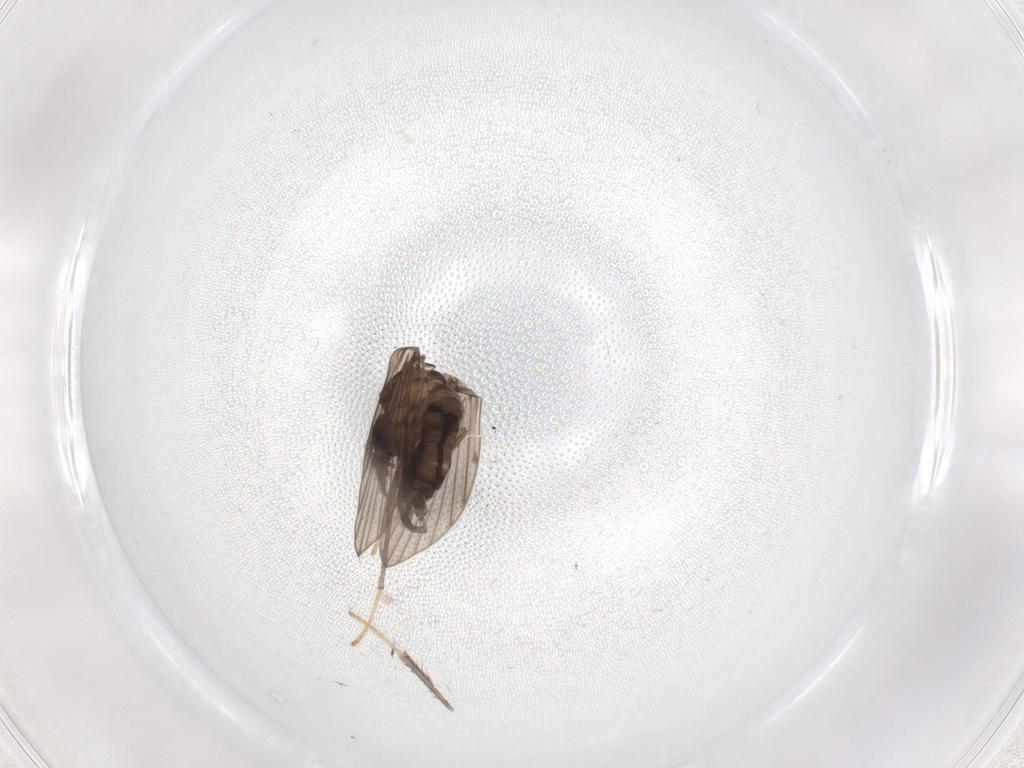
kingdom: Animalia
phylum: Arthropoda
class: Insecta
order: Diptera
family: Psychodidae
